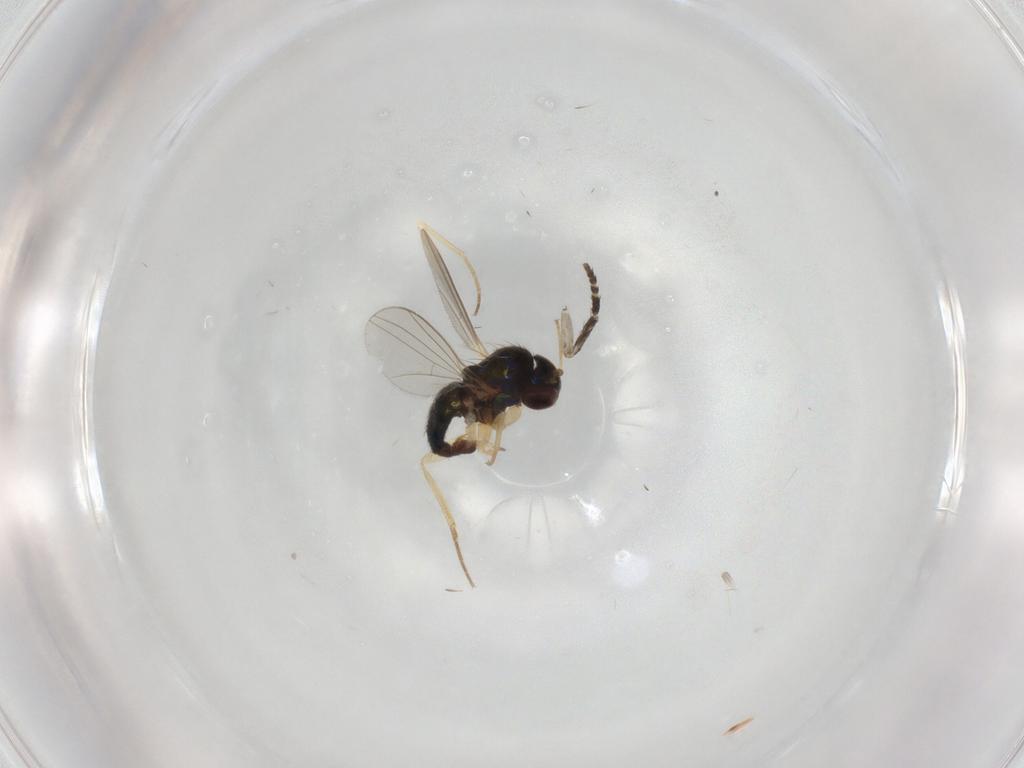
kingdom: Animalia
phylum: Arthropoda
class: Insecta
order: Diptera
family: Dolichopodidae
